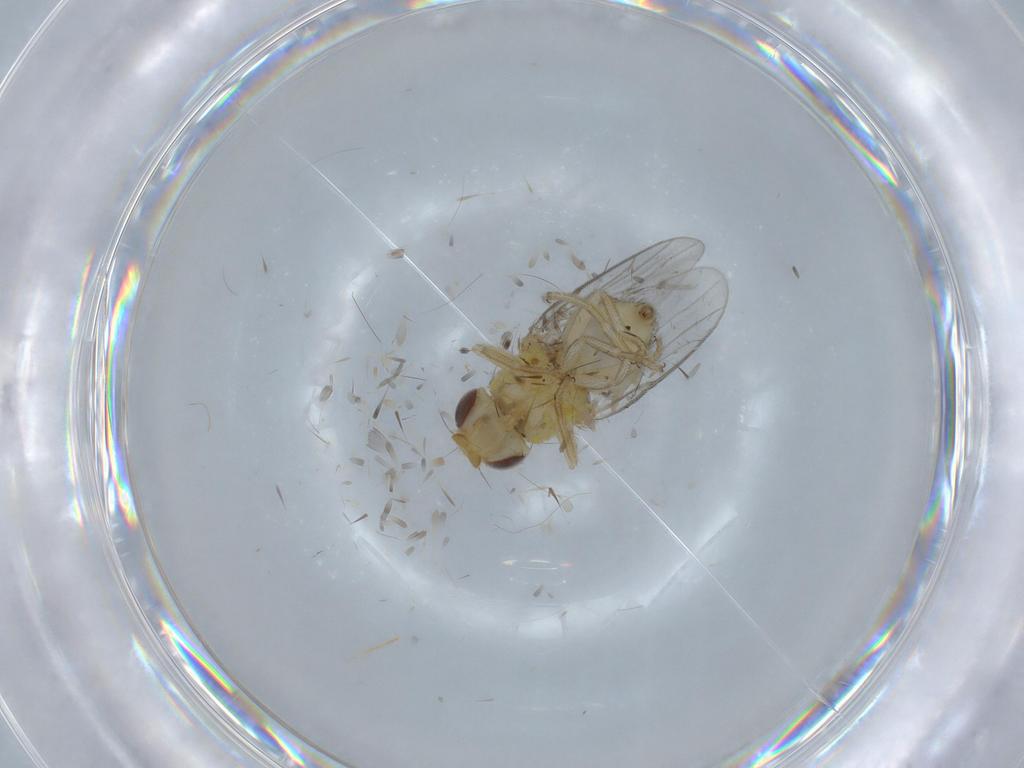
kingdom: Animalia
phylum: Arthropoda
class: Insecta
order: Diptera
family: Chloropidae
